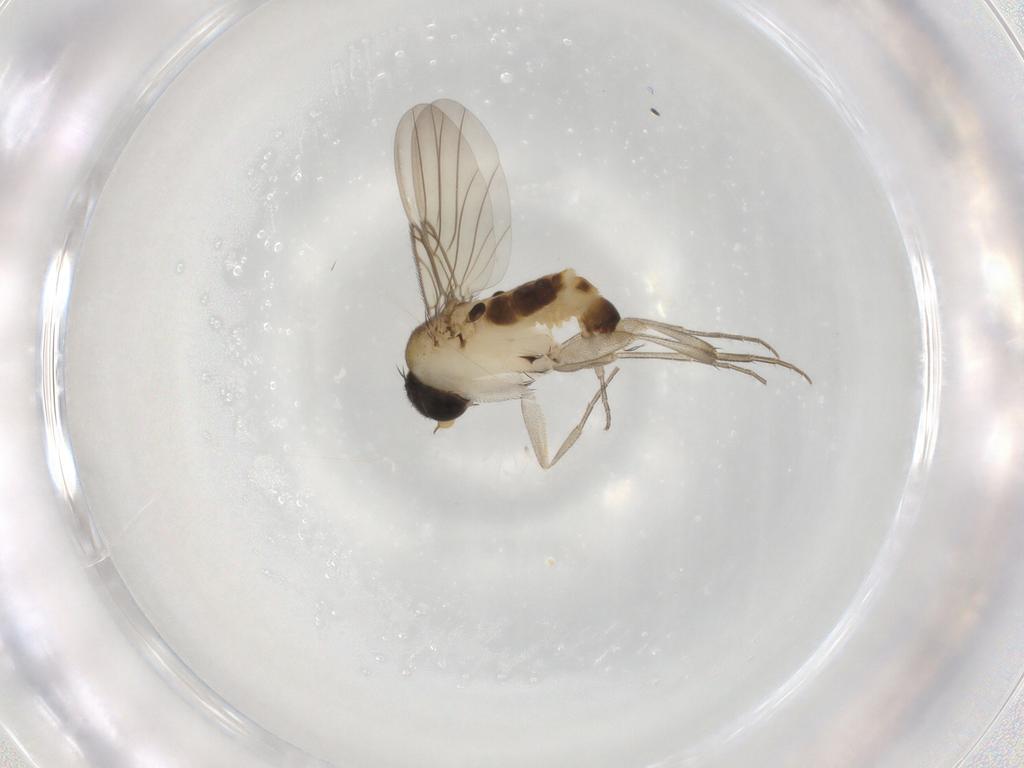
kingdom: Animalia
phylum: Arthropoda
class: Insecta
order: Diptera
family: Phoridae
